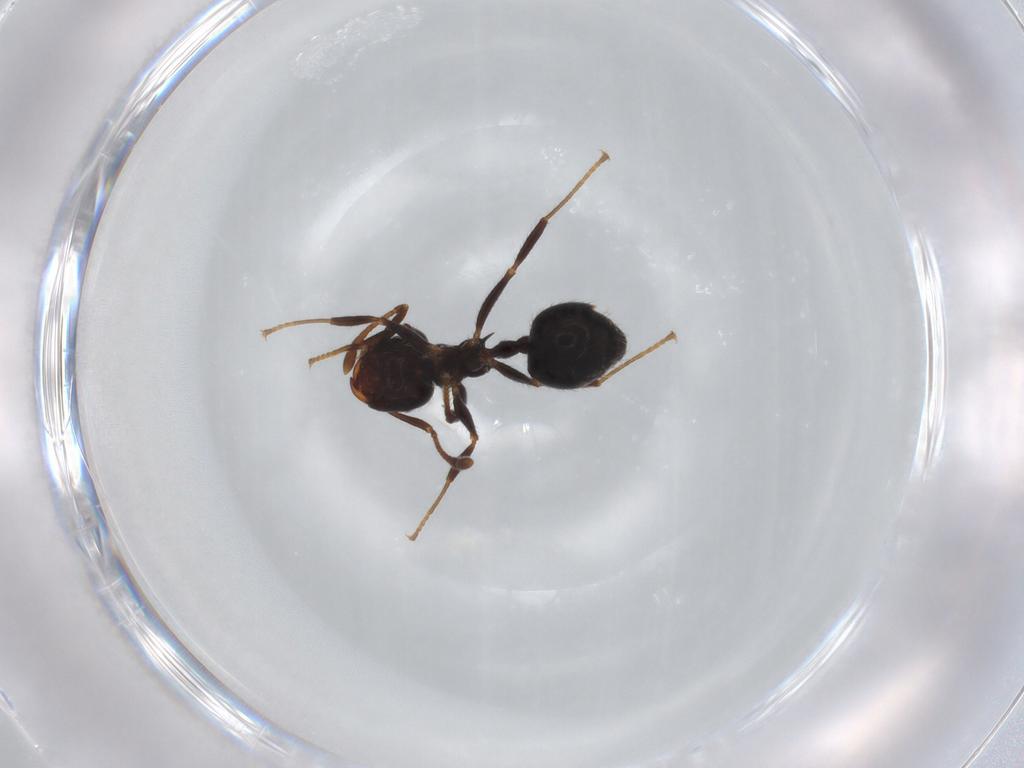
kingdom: Animalia
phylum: Arthropoda
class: Insecta
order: Hymenoptera
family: Formicidae
